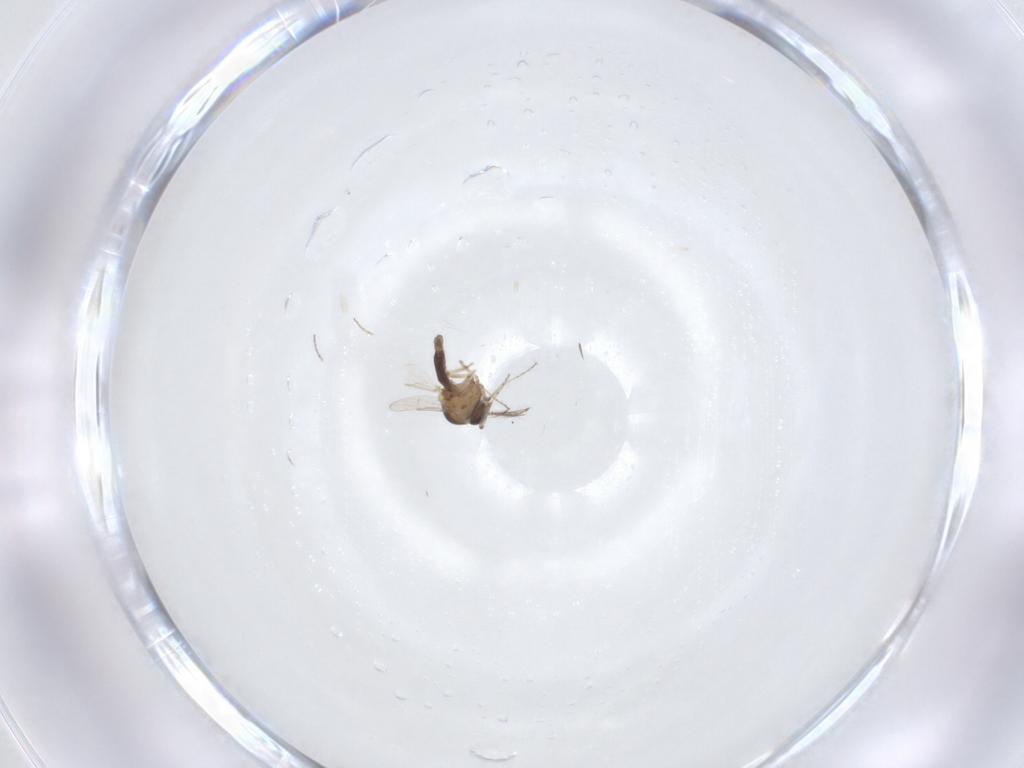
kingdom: Animalia
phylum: Arthropoda
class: Insecta
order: Diptera
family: Ceratopogonidae
